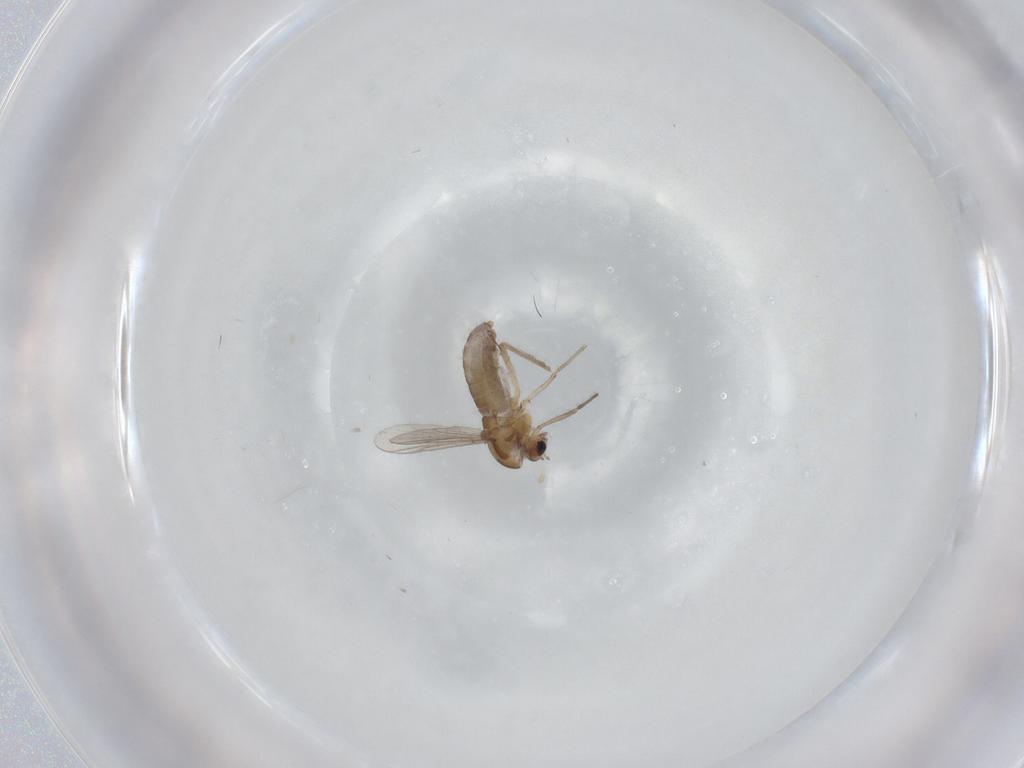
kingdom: Animalia
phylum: Arthropoda
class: Insecta
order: Diptera
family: Chironomidae
